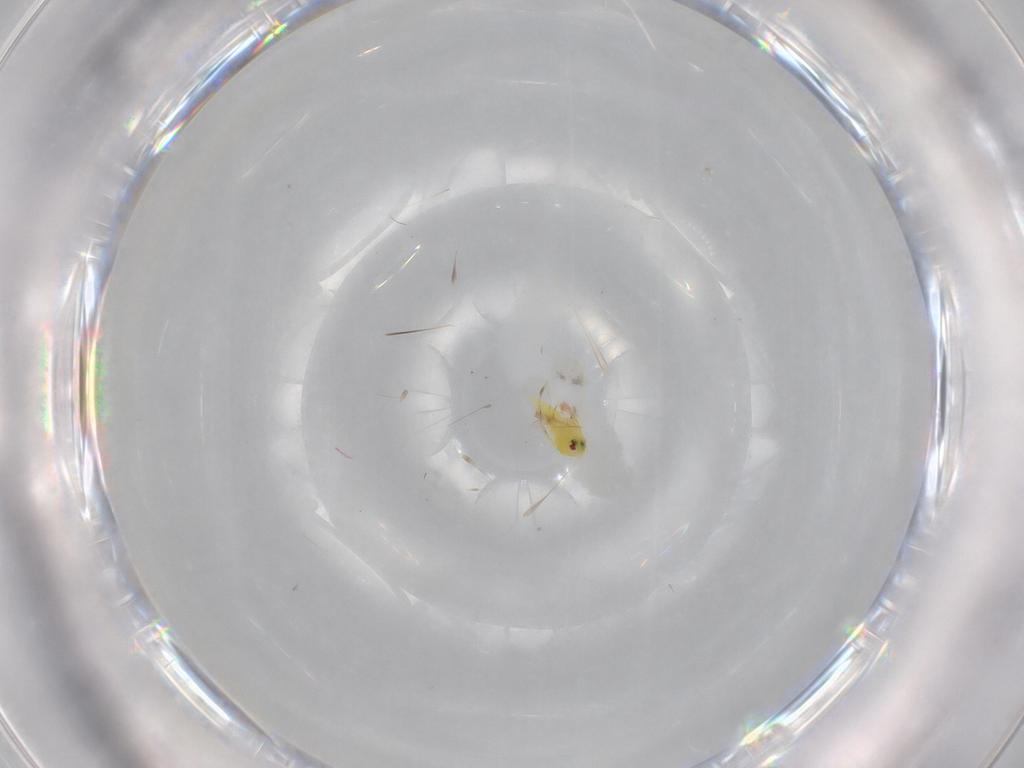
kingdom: Animalia
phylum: Arthropoda
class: Insecta
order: Hemiptera
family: Aleyrodidae
